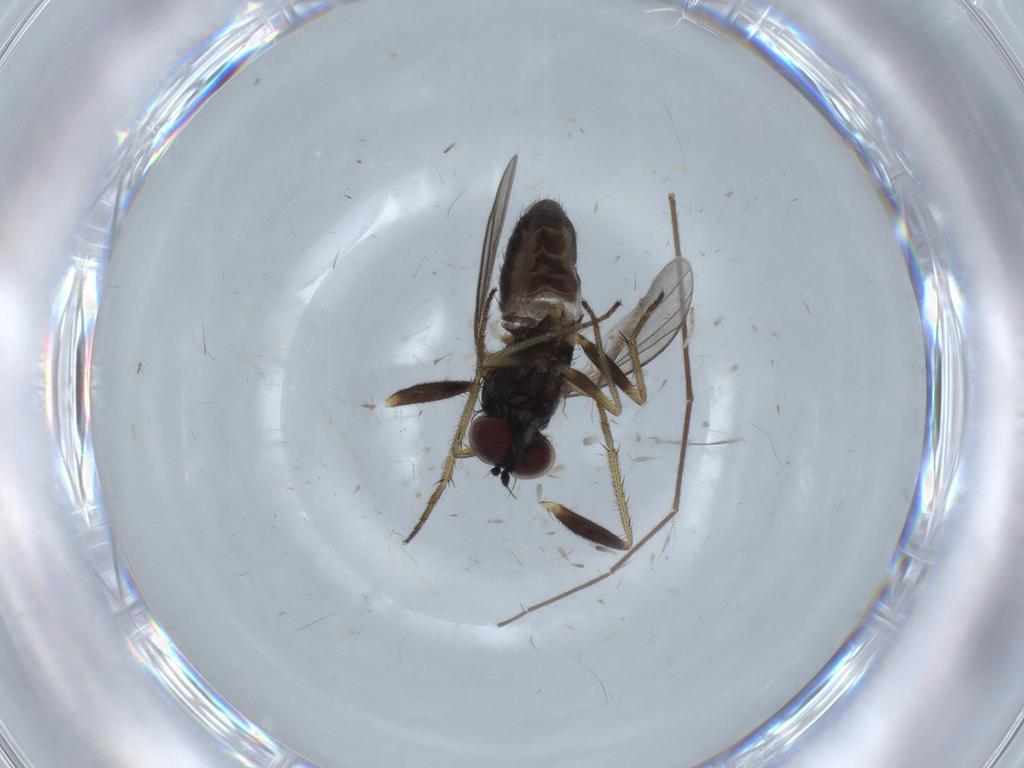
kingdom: Animalia
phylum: Arthropoda
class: Insecta
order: Diptera
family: Psychodidae
